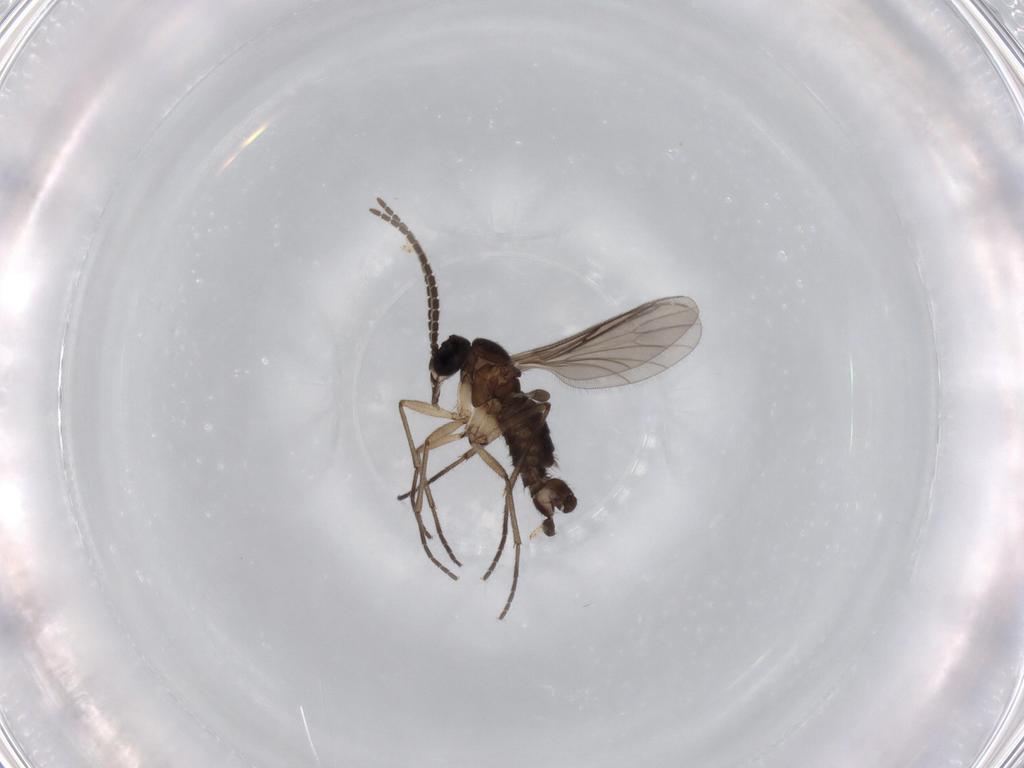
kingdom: Animalia
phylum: Arthropoda
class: Insecta
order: Diptera
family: Sciaridae
